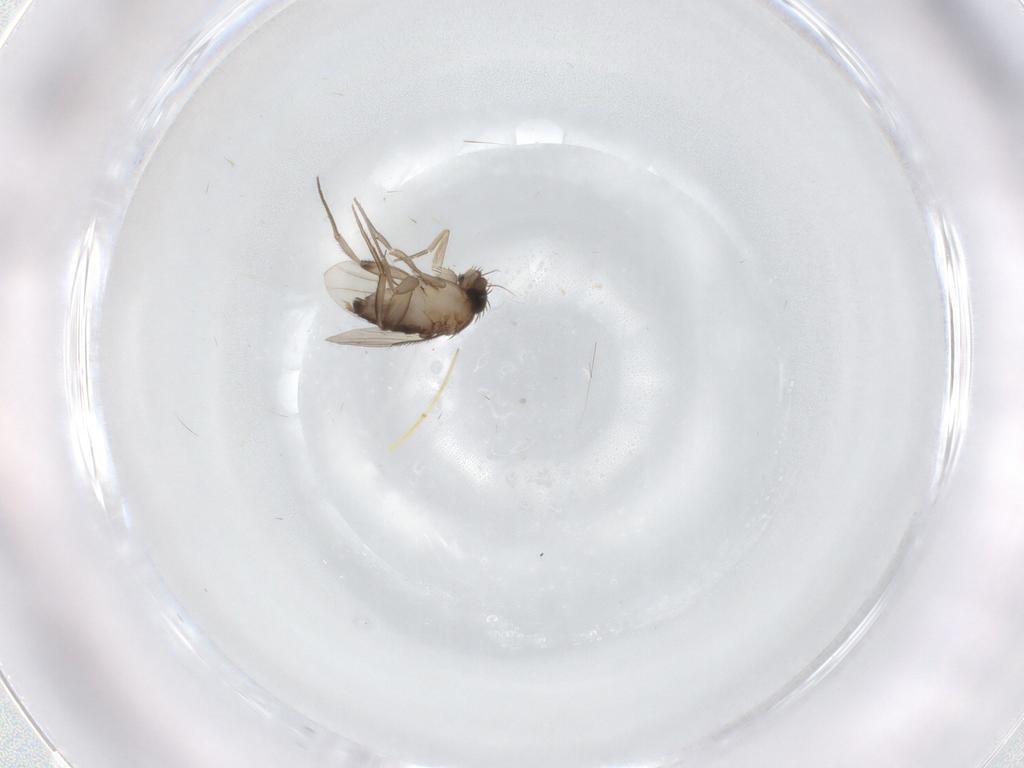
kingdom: Animalia
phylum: Arthropoda
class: Insecta
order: Diptera
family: Phoridae
